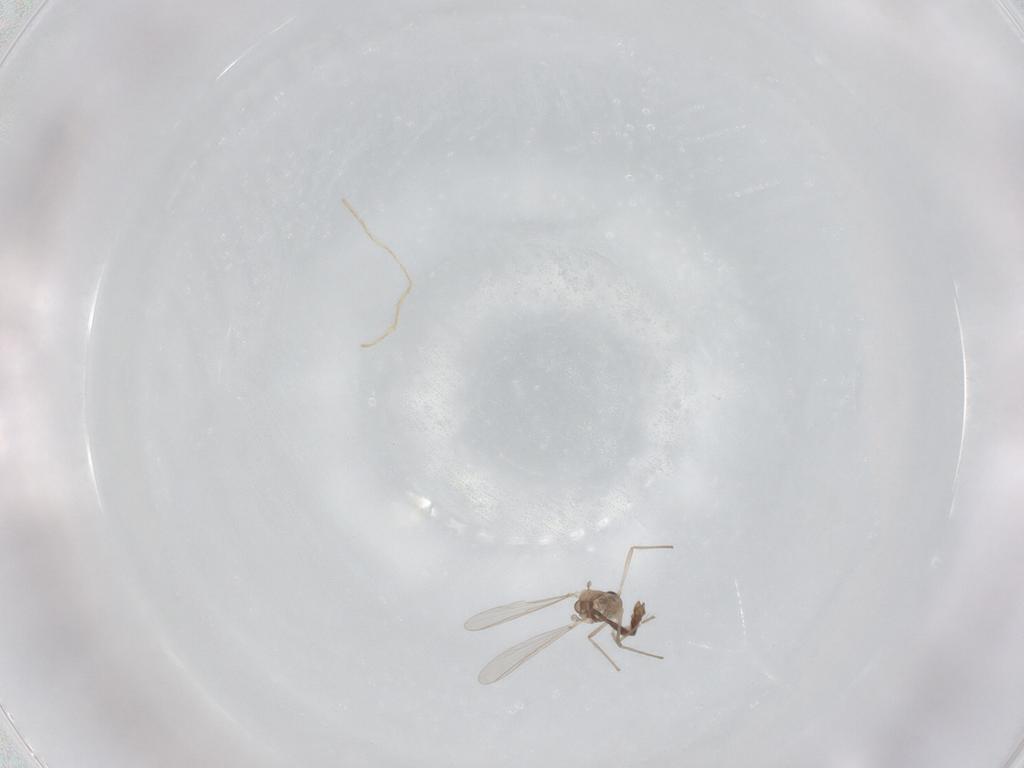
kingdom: Animalia
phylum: Arthropoda
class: Insecta
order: Diptera
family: Chironomidae
